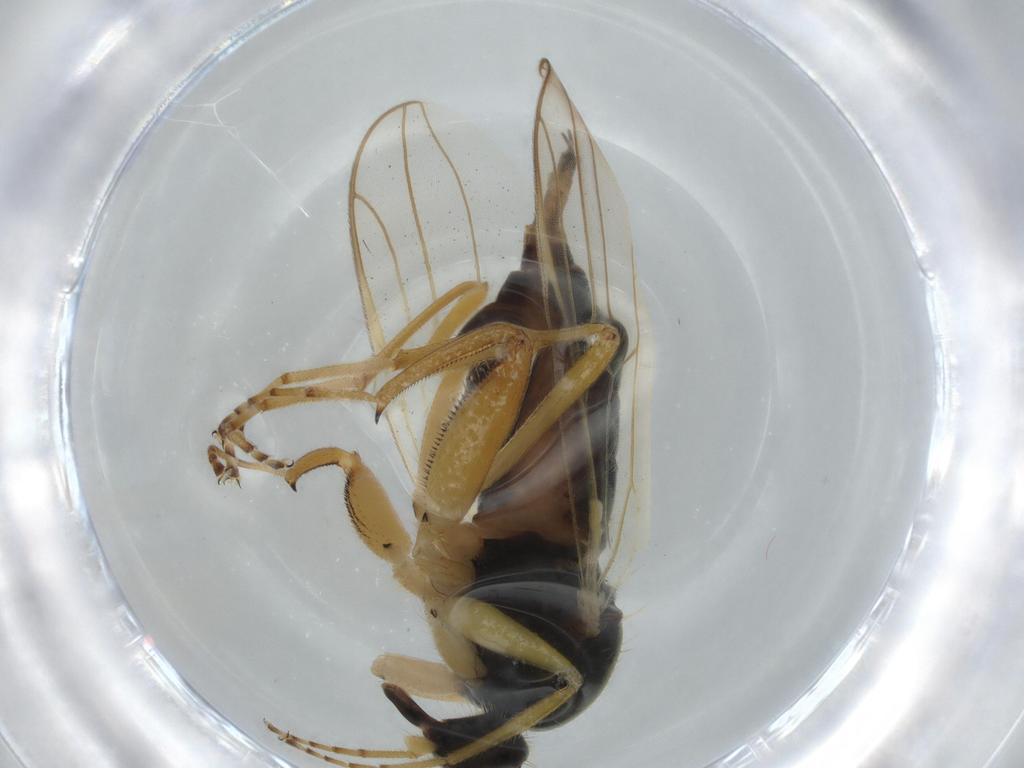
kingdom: Animalia
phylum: Arthropoda
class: Insecta
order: Diptera
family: Hybotidae
